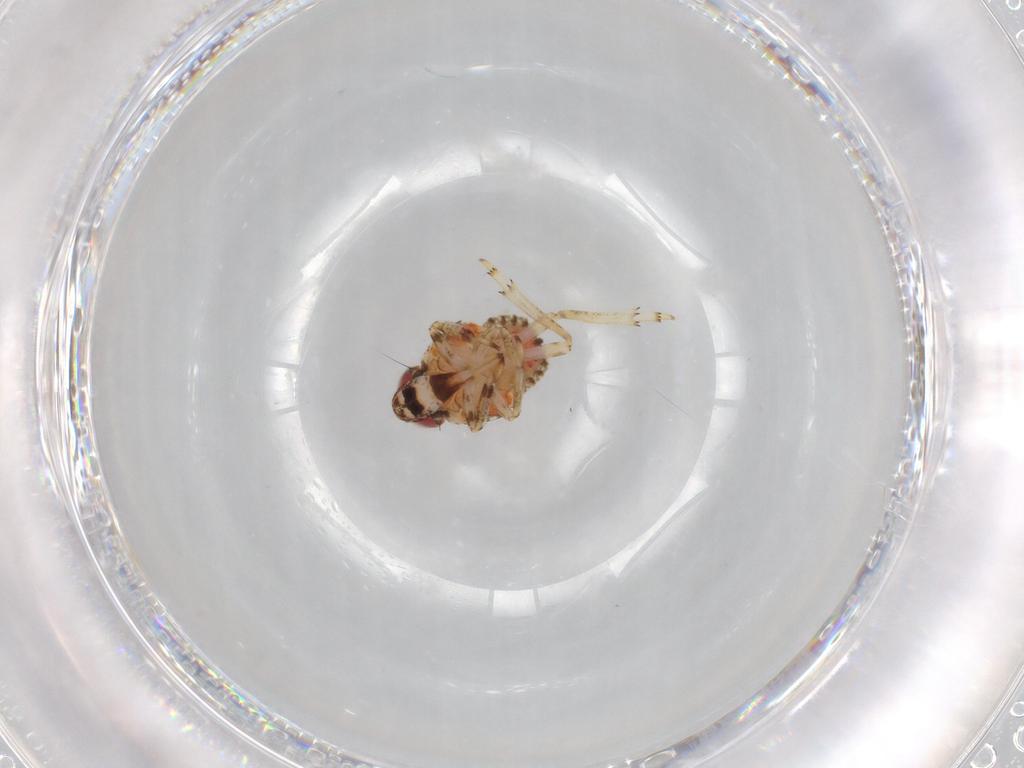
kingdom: Animalia
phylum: Arthropoda
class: Insecta
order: Hemiptera
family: Issidae
